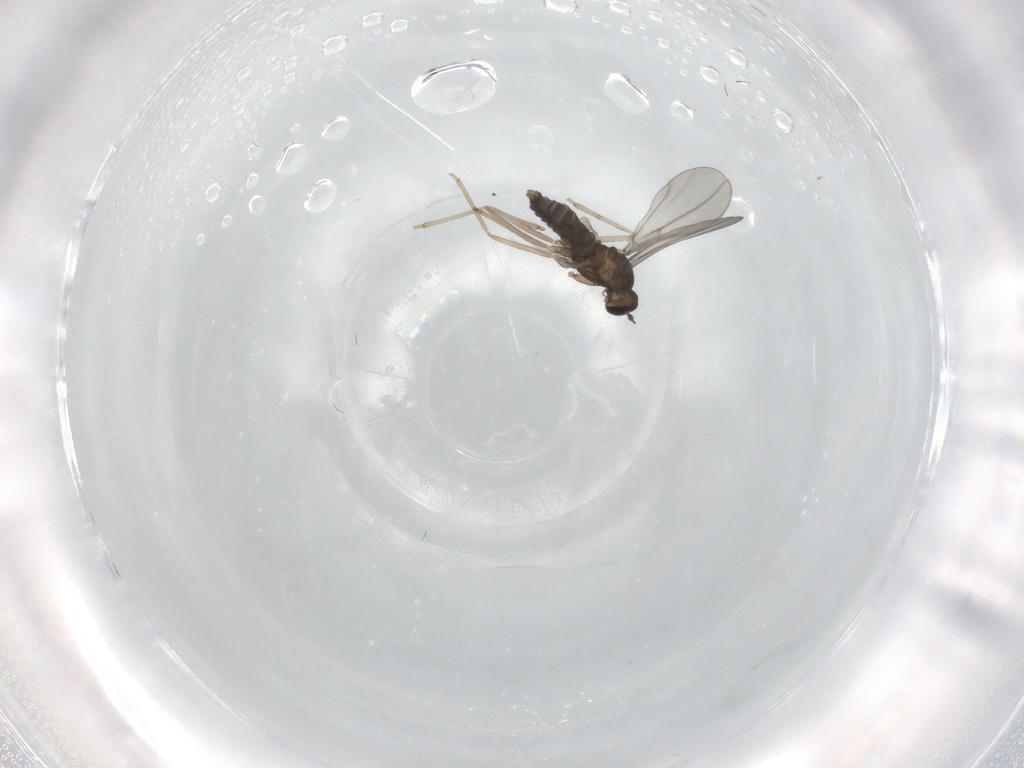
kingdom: Animalia
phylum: Arthropoda
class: Insecta
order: Diptera
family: Cecidomyiidae
